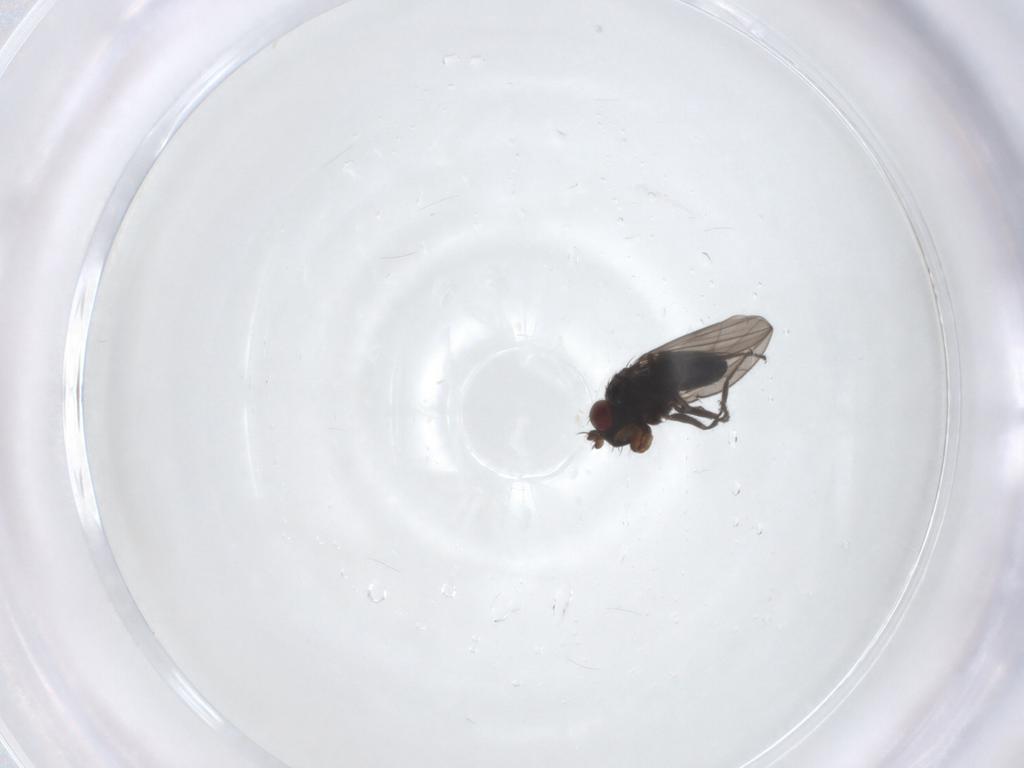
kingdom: Animalia
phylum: Arthropoda
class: Insecta
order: Diptera
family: Ephydridae
